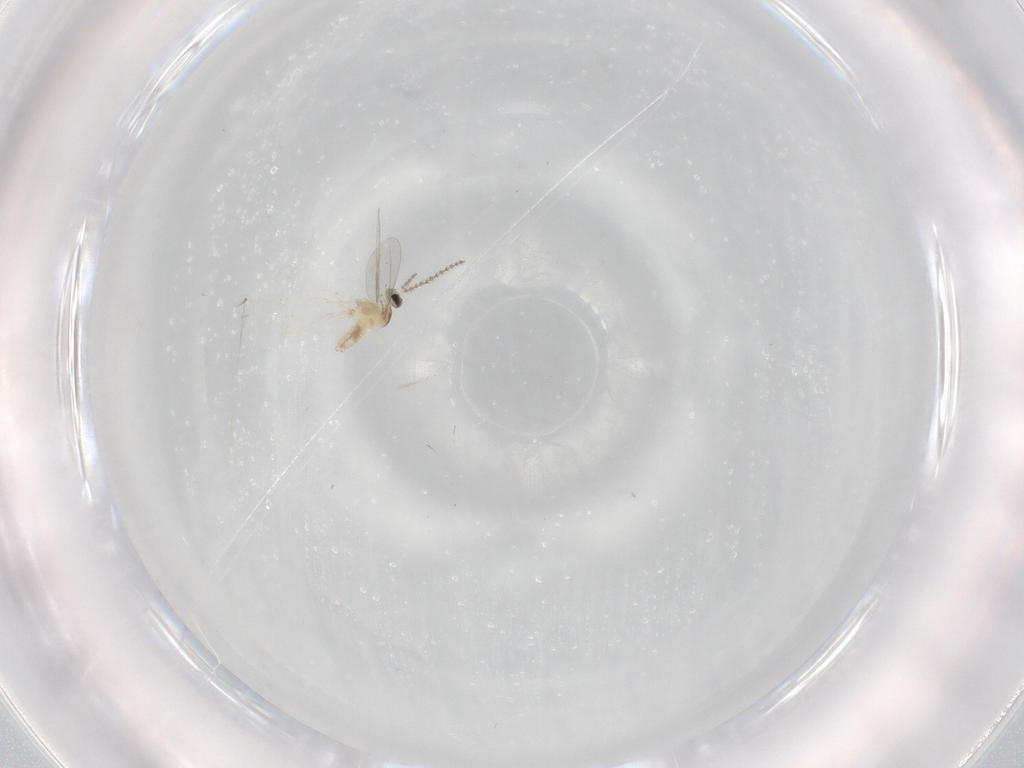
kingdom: Animalia
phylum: Arthropoda
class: Insecta
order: Diptera
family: Cecidomyiidae
